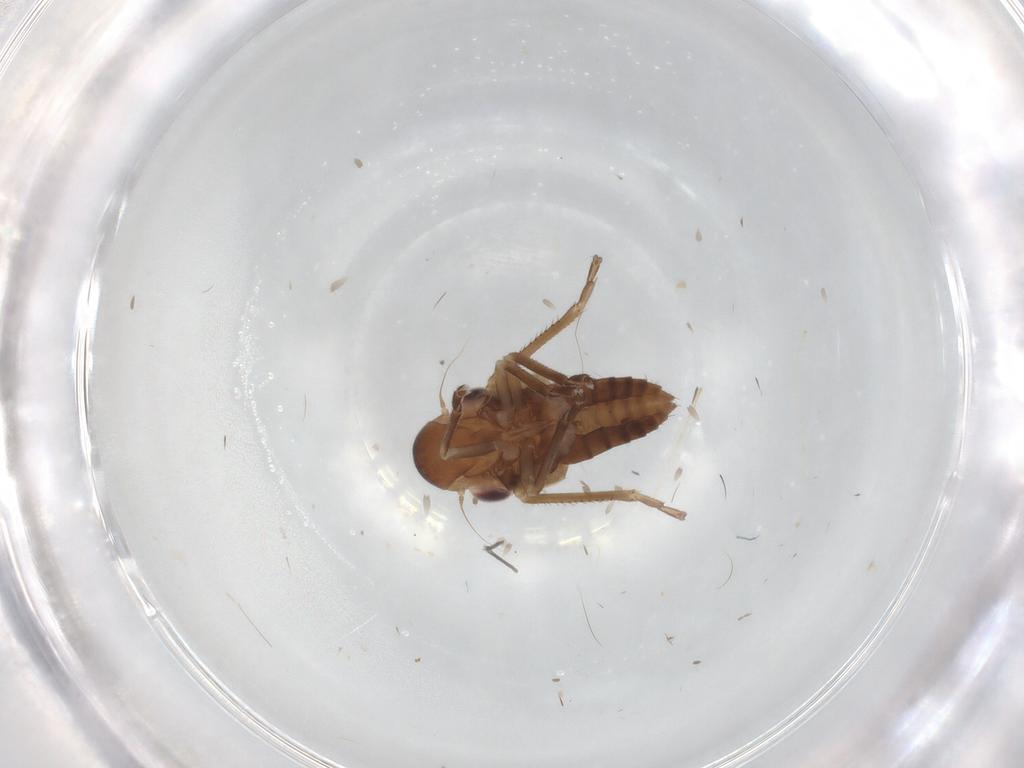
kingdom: Animalia
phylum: Arthropoda
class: Insecta
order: Hemiptera
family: Cicadellidae
